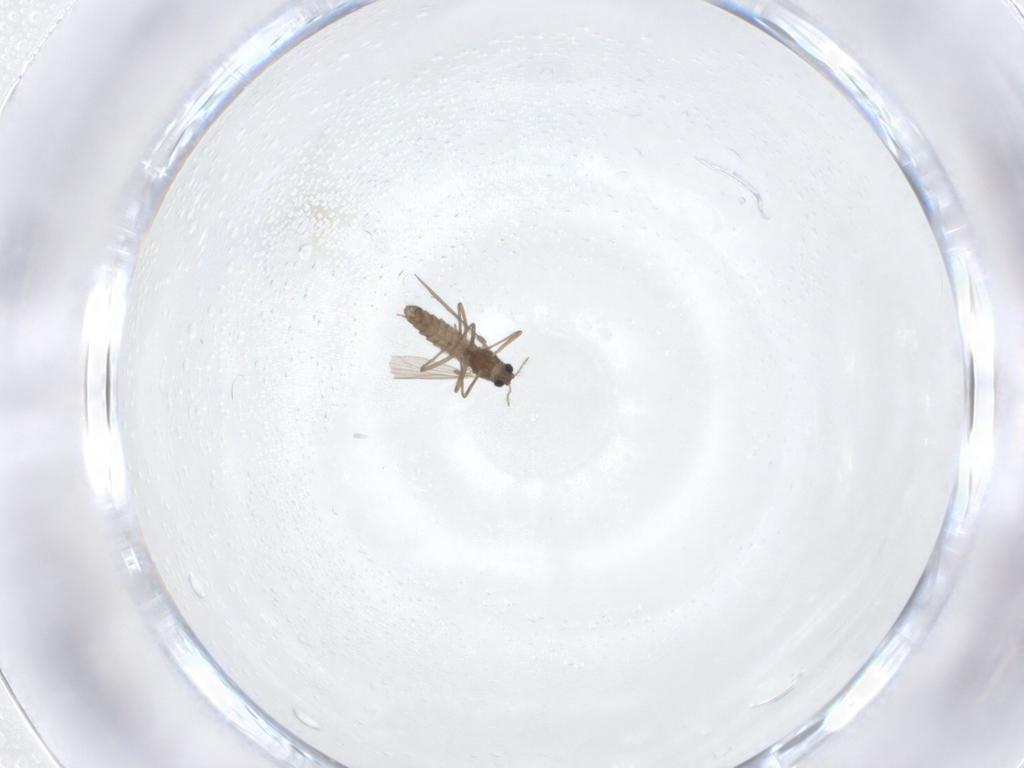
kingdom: Animalia
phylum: Arthropoda
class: Insecta
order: Diptera
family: Chironomidae
